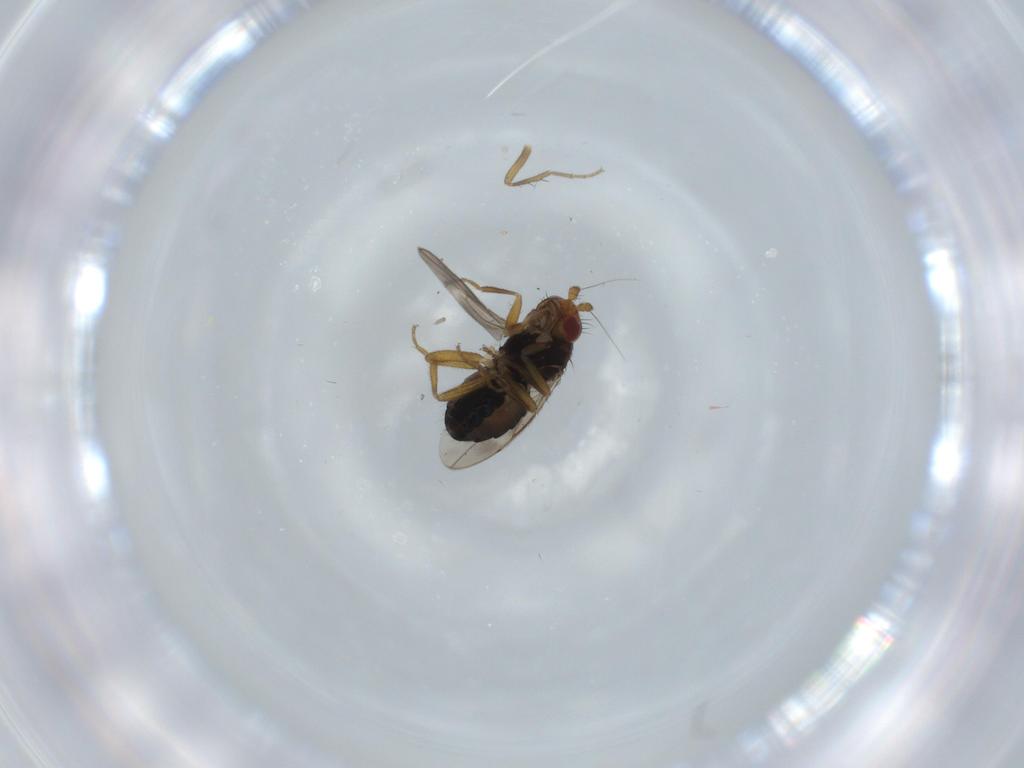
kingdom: Animalia
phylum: Arthropoda
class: Insecta
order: Diptera
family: Sphaeroceridae
